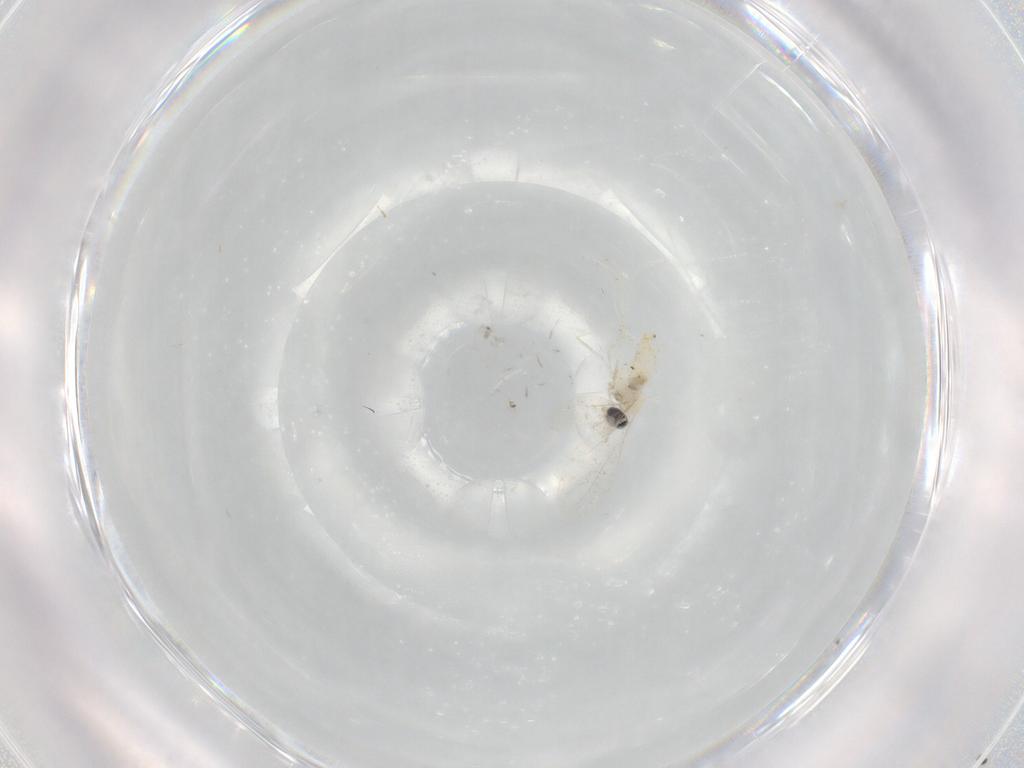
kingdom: Animalia
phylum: Arthropoda
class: Insecta
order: Diptera
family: Cecidomyiidae
